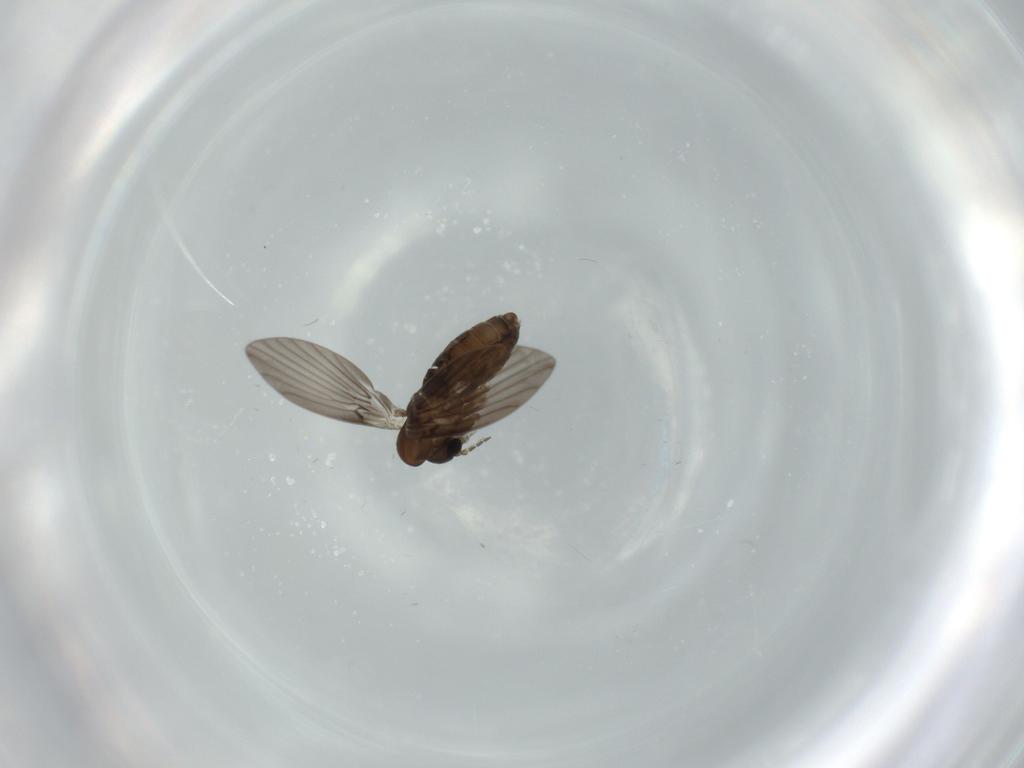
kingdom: Animalia
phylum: Arthropoda
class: Insecta
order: Diptera
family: Psychodidae
